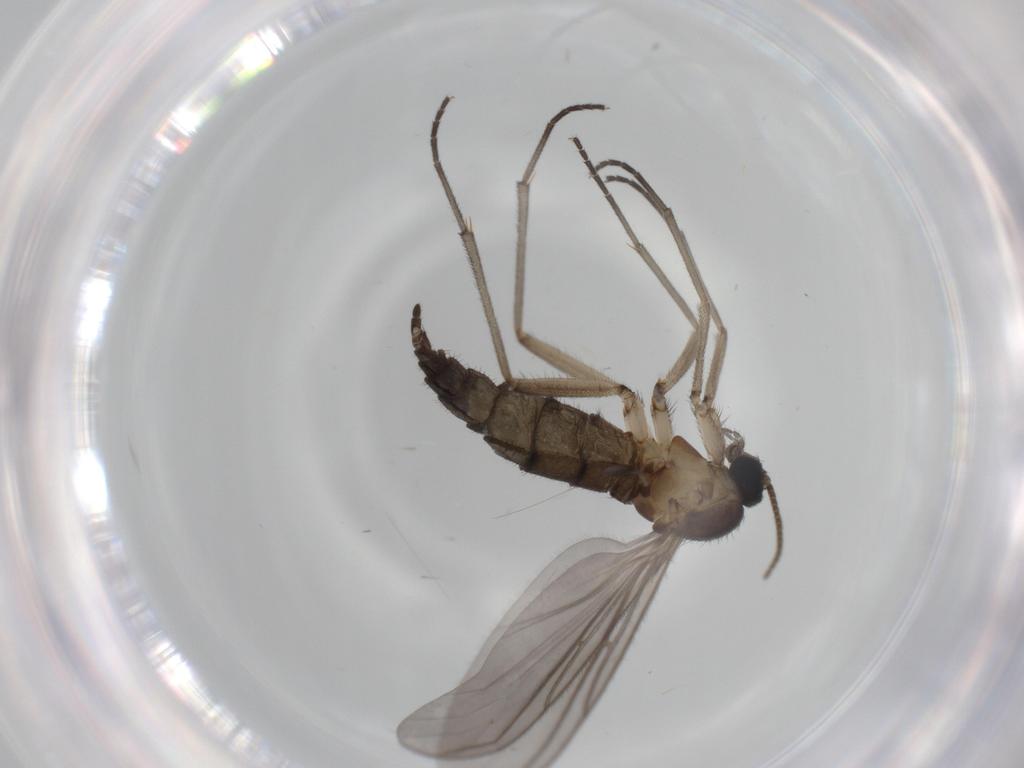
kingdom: Animalia
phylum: Arthropoda
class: Insecta
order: Diptera
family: Sciaridae
